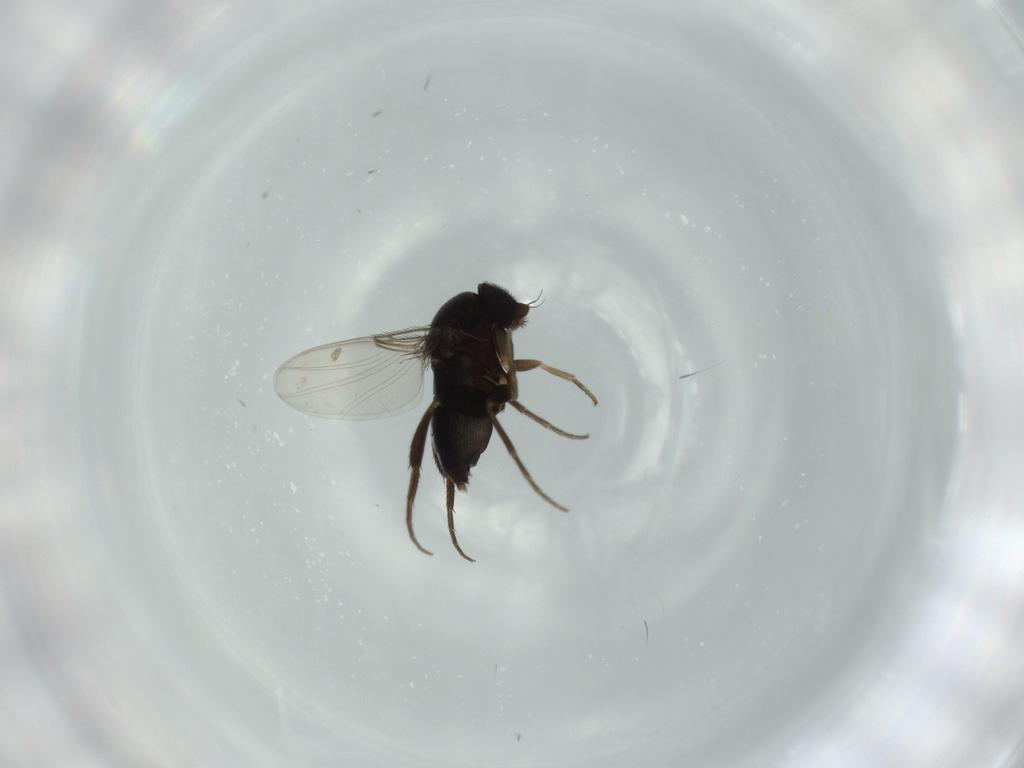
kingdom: Animalia
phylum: Arthropoda
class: Insecta
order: Diptera
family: Phoridae
